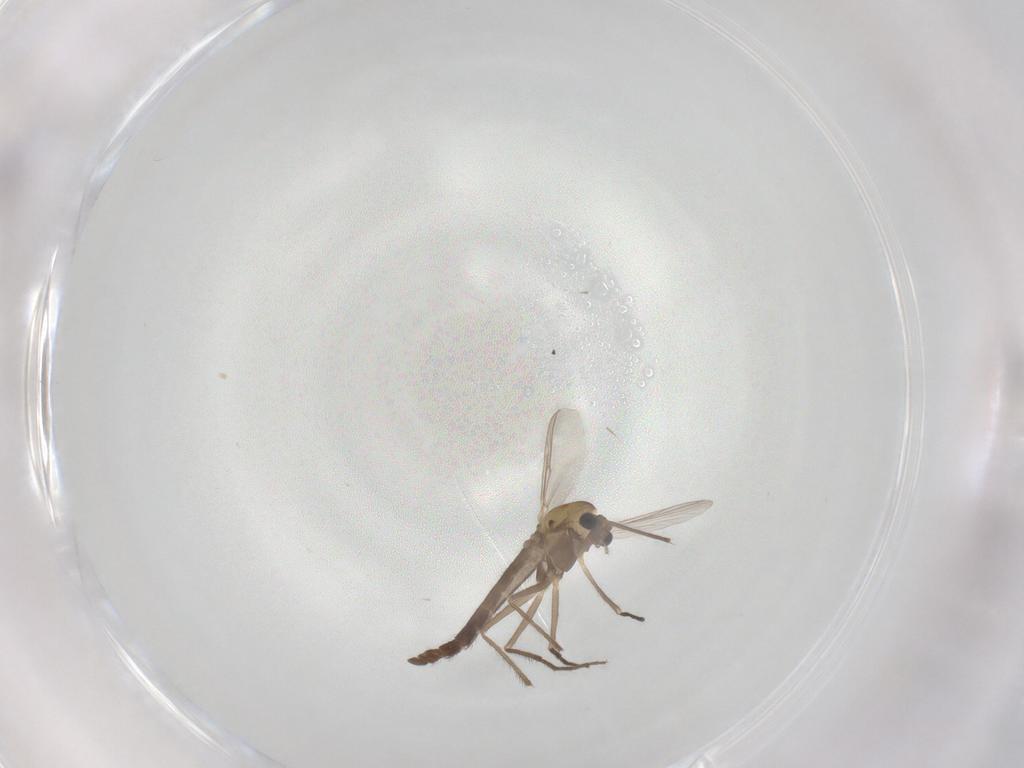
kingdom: Animalia
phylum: Arthropoda
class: Insecta
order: Diptera
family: Chironomidae
